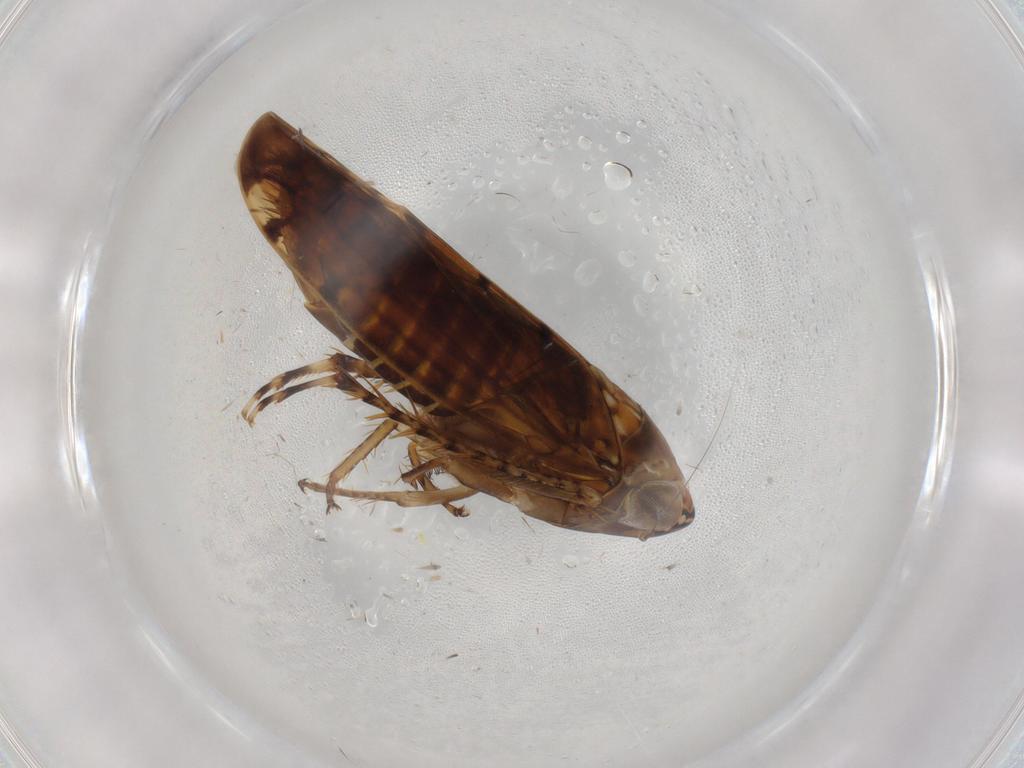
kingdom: Animalia
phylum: Arthropoda
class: Insecta
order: Hemiptera
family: Cicadellidae
